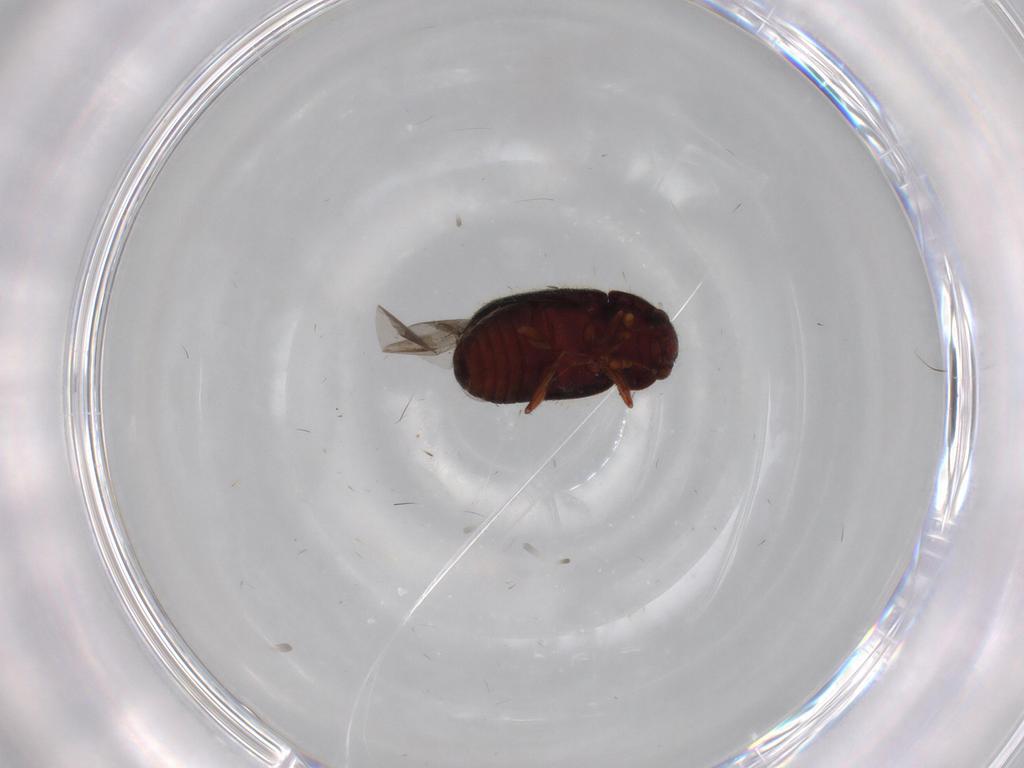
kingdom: Animalia
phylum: Arthropoda
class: Insecta
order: Coleoptera
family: Sphindidae
